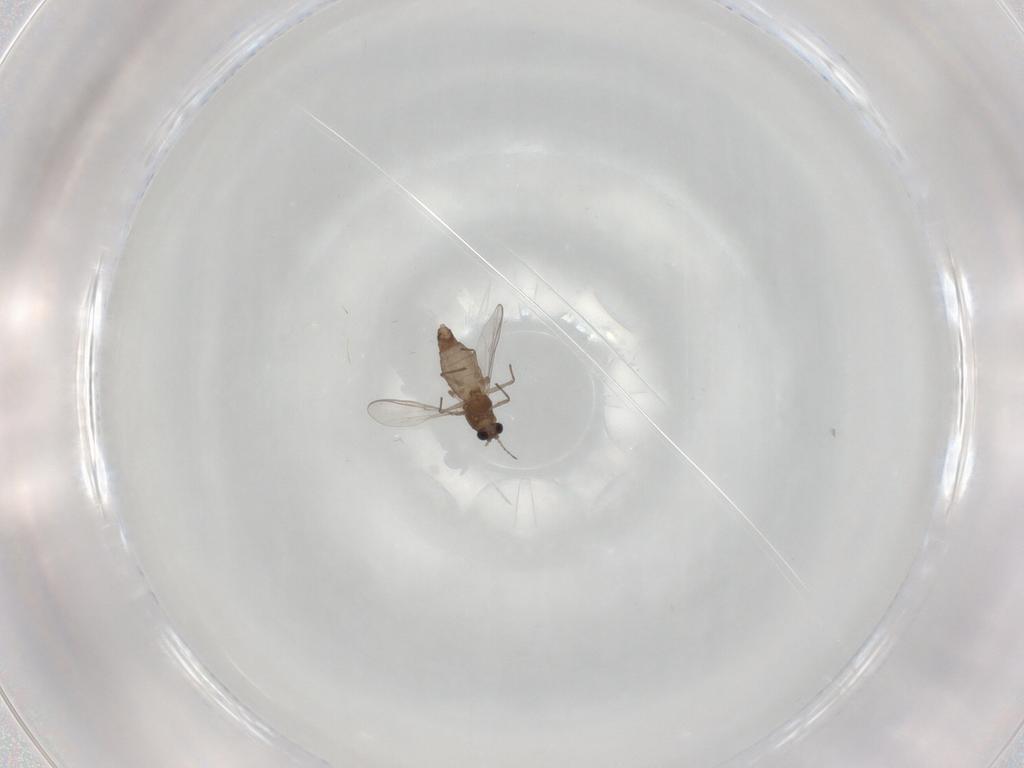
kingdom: Animalia
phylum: Arthropoda
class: Insecta
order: Diptera
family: Chironomidae
